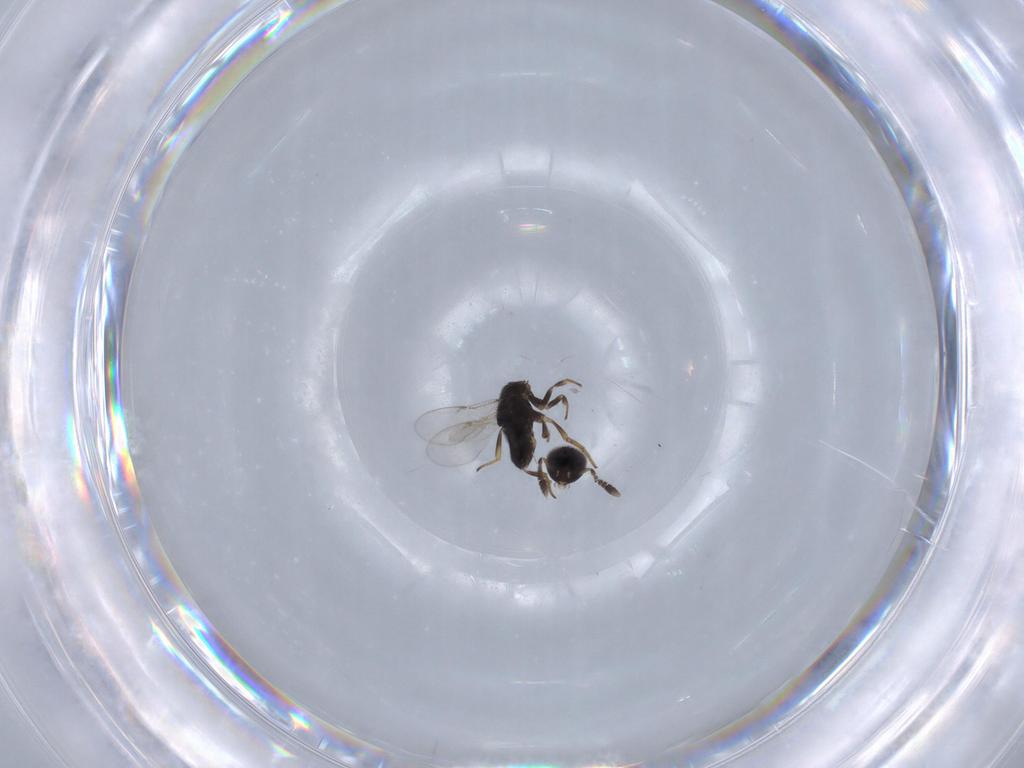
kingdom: Animalia
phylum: Arthropoda
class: Insecta
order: Hymenoptera
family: Encyrtidae
